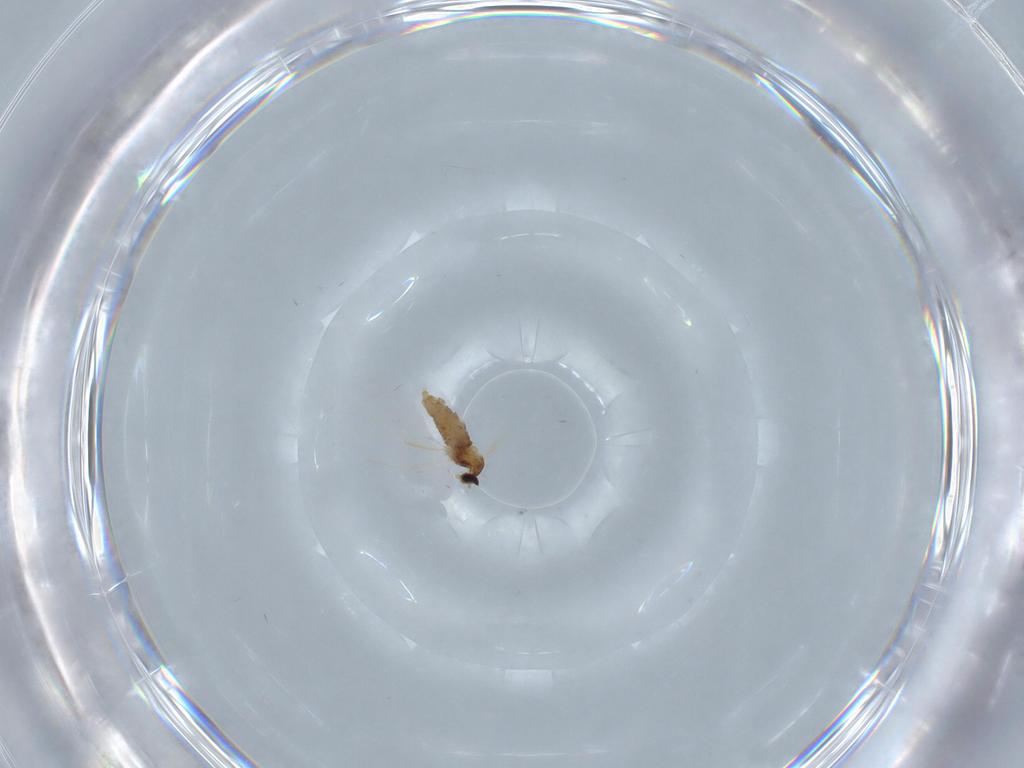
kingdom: Animalia
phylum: Arthropoda
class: Insecta
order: Diptera
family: Cecidomyiidae
